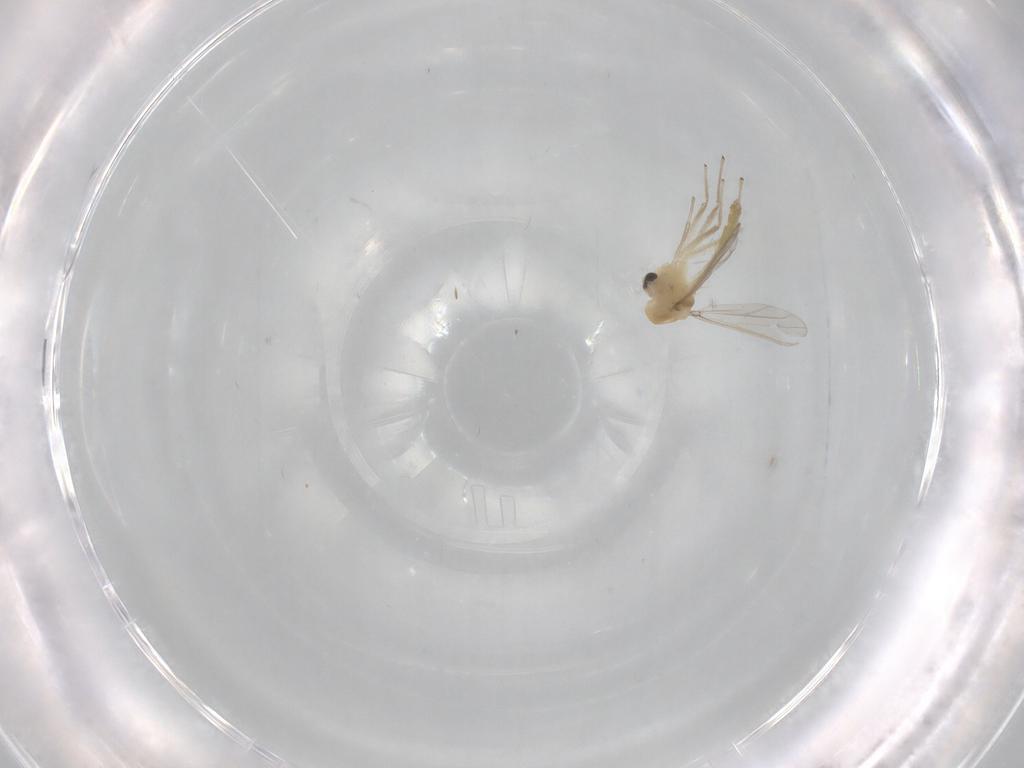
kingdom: Animalia
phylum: Arthropoda
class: Insecta
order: Diptera
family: Chironomidae
